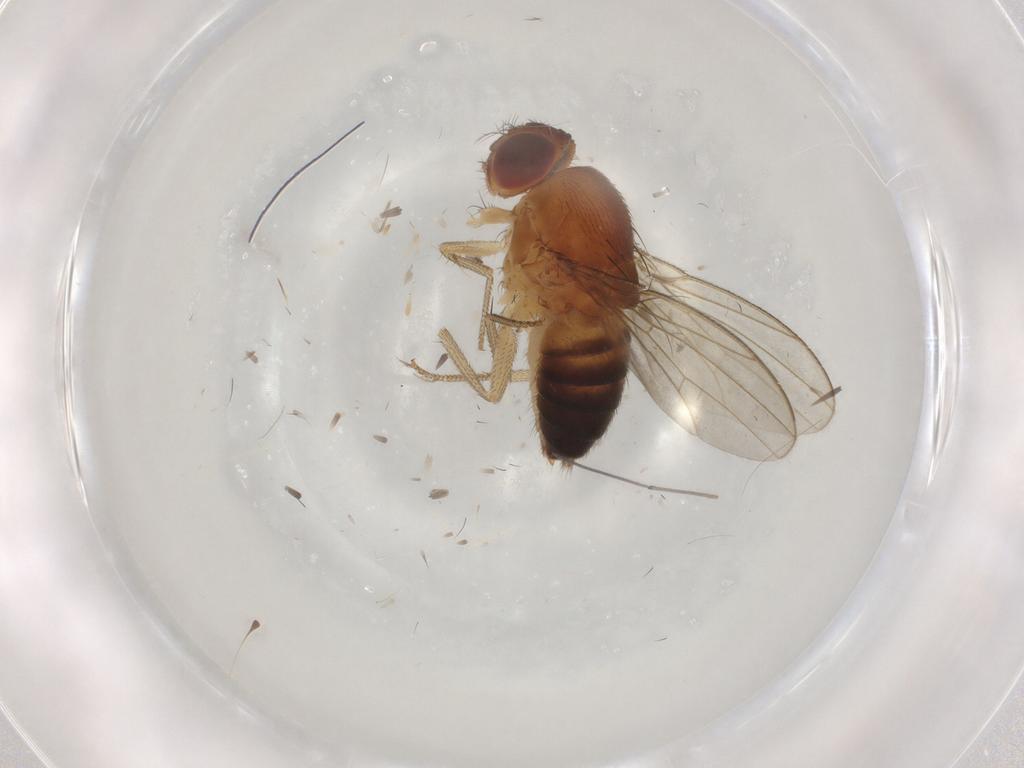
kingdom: Animalia
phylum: Arthropoda
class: Insecta
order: Diptera
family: Drosophilidae
